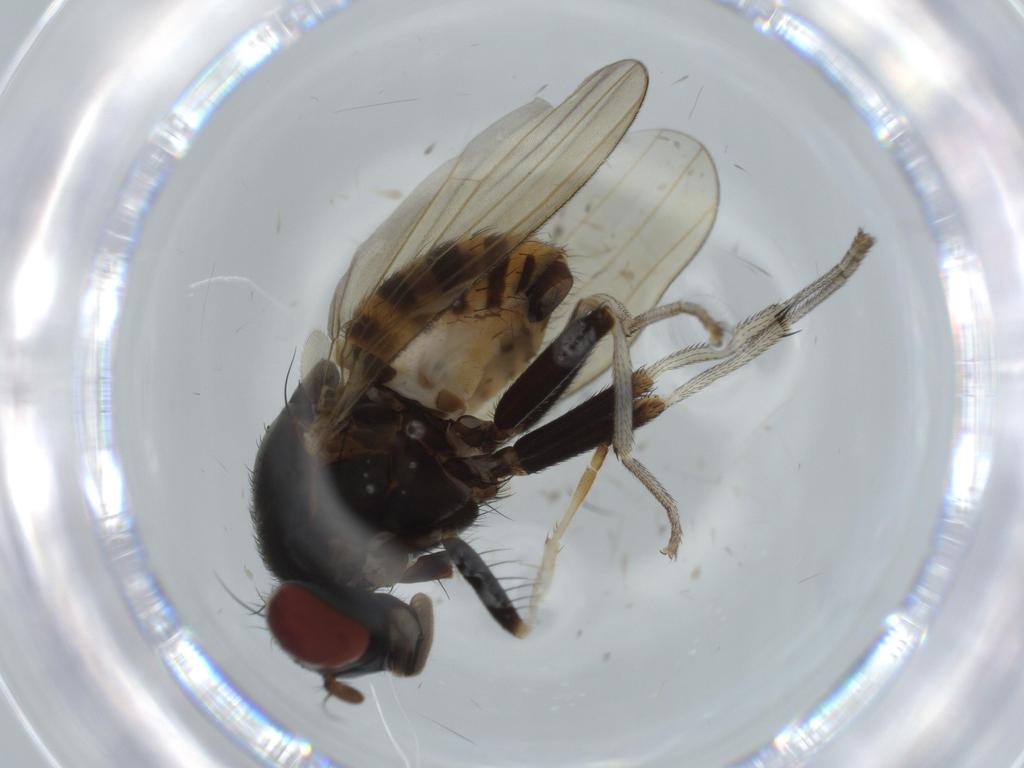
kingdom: Animalia
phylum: Arthropoda
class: Insecta
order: Diptera
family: Lauxaniidae
